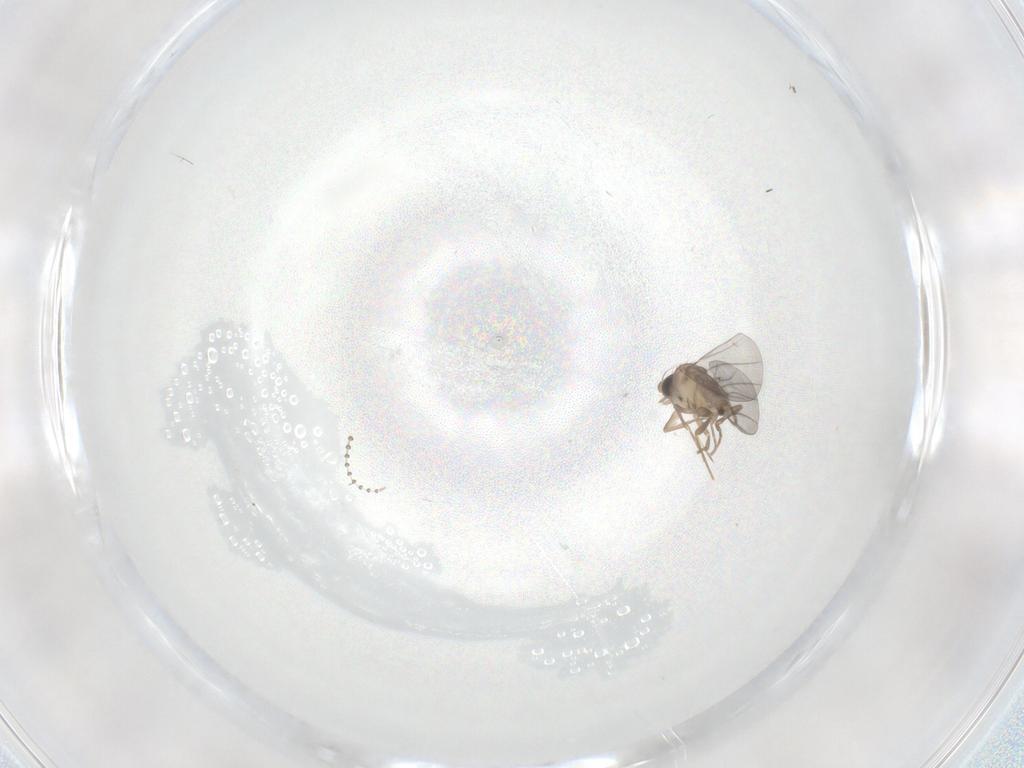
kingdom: Animalia
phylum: Arthropoda
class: Insecta
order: Diptera
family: Cecidomyiidae
